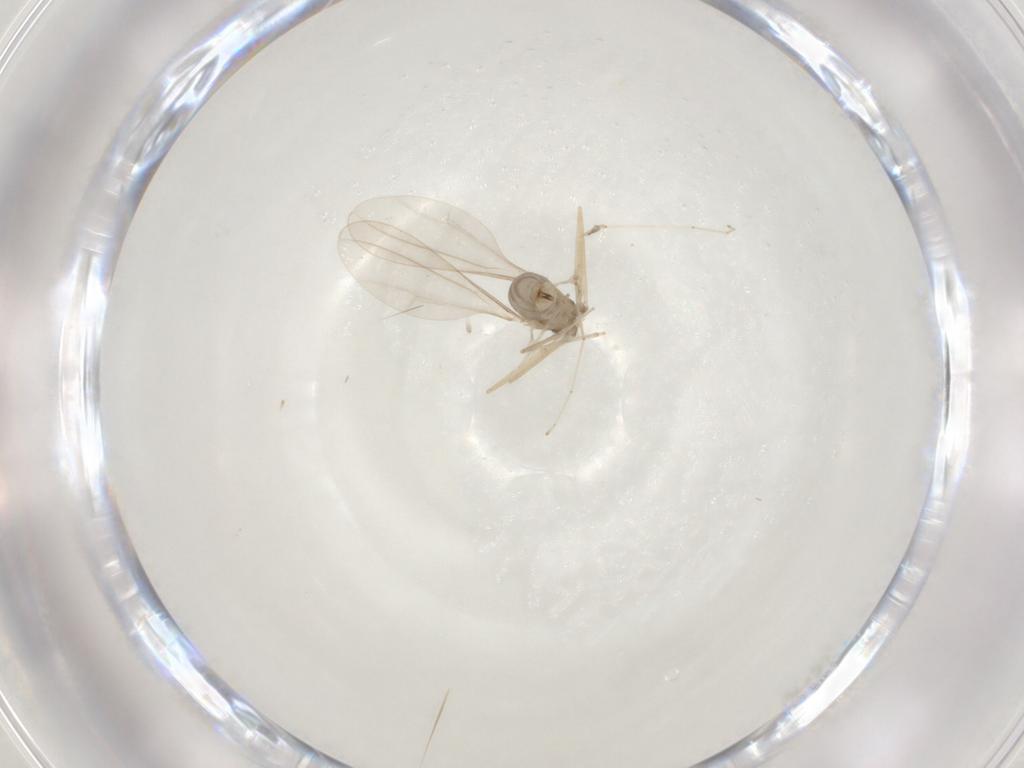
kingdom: Animalia
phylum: Arthropoda
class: Insecta
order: Diptera
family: Cecidomyiidae
